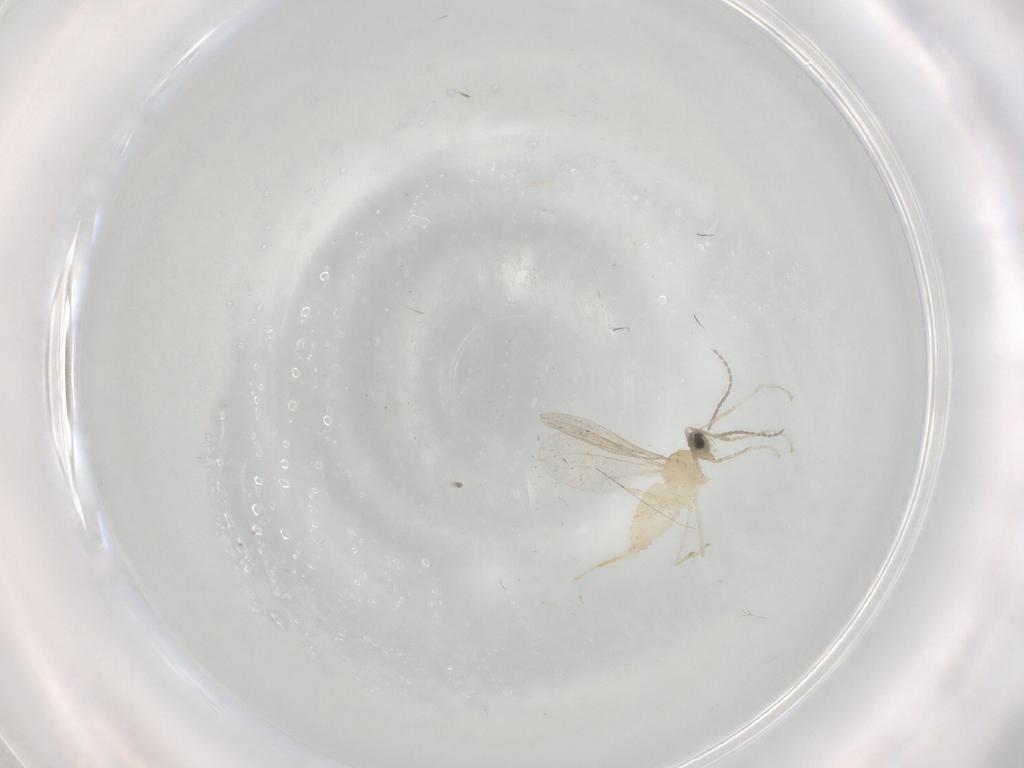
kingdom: Animalia
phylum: Arthropoda
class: Insecta
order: Diptera
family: Cecidomyiidae
